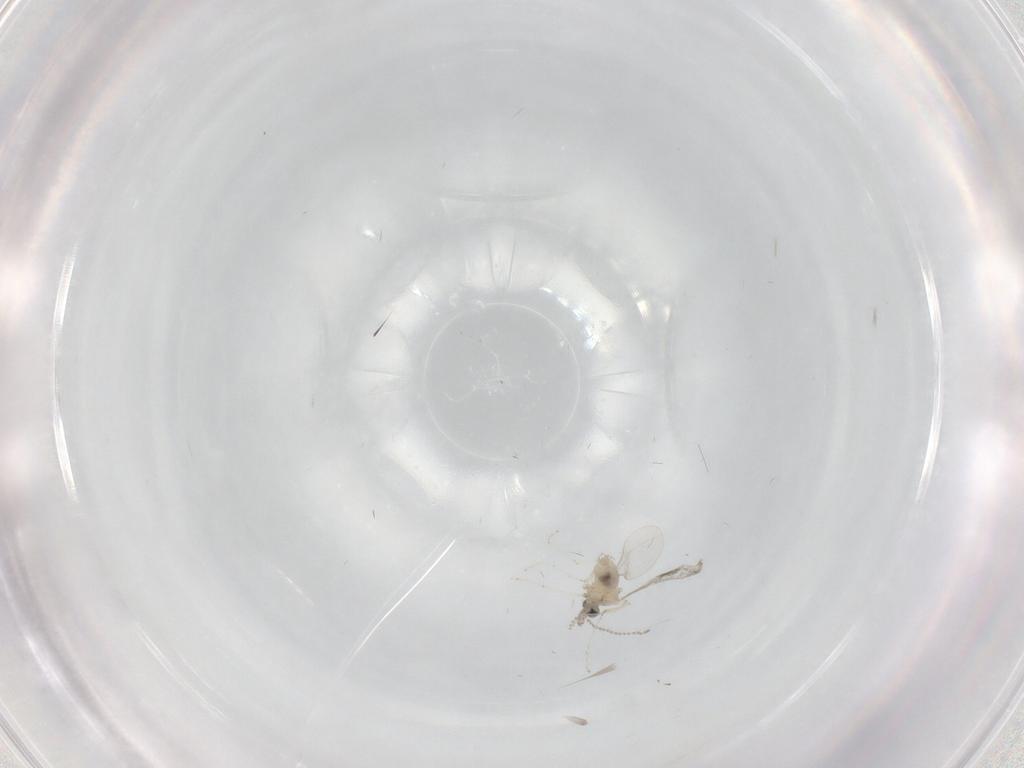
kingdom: Animalia
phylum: Arthropoda
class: Insecta
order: Diptera
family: Cecidomyiidae
